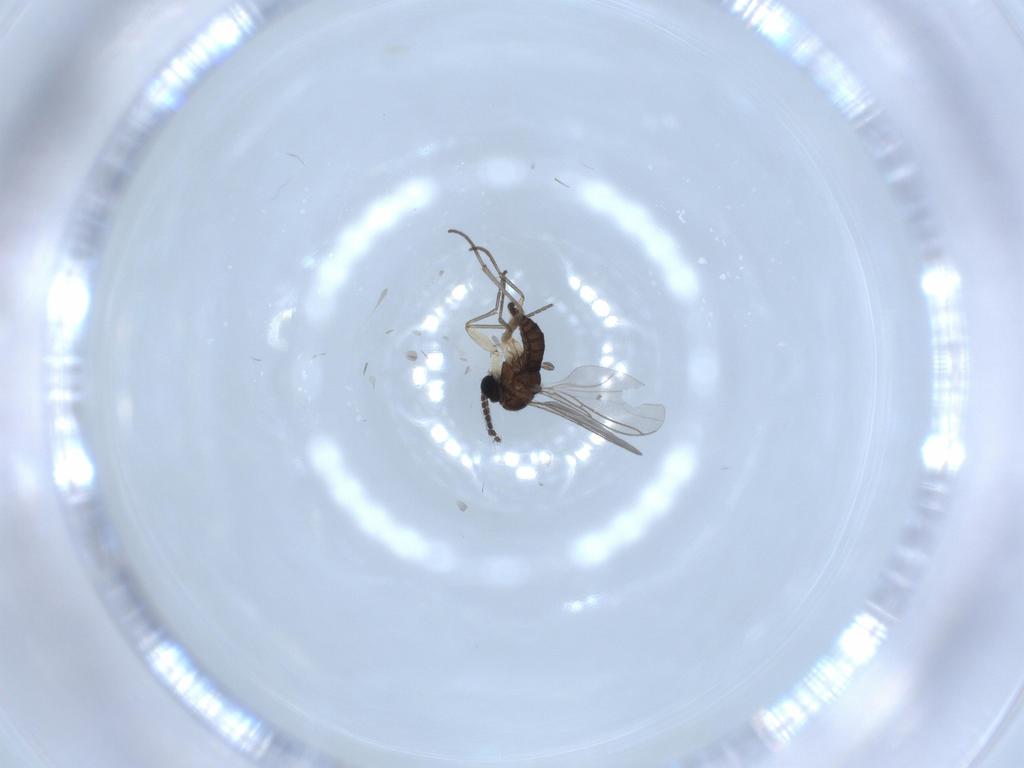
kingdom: Animalia
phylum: Arthropoda
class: Insecta
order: Diptera
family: Sciaridae
